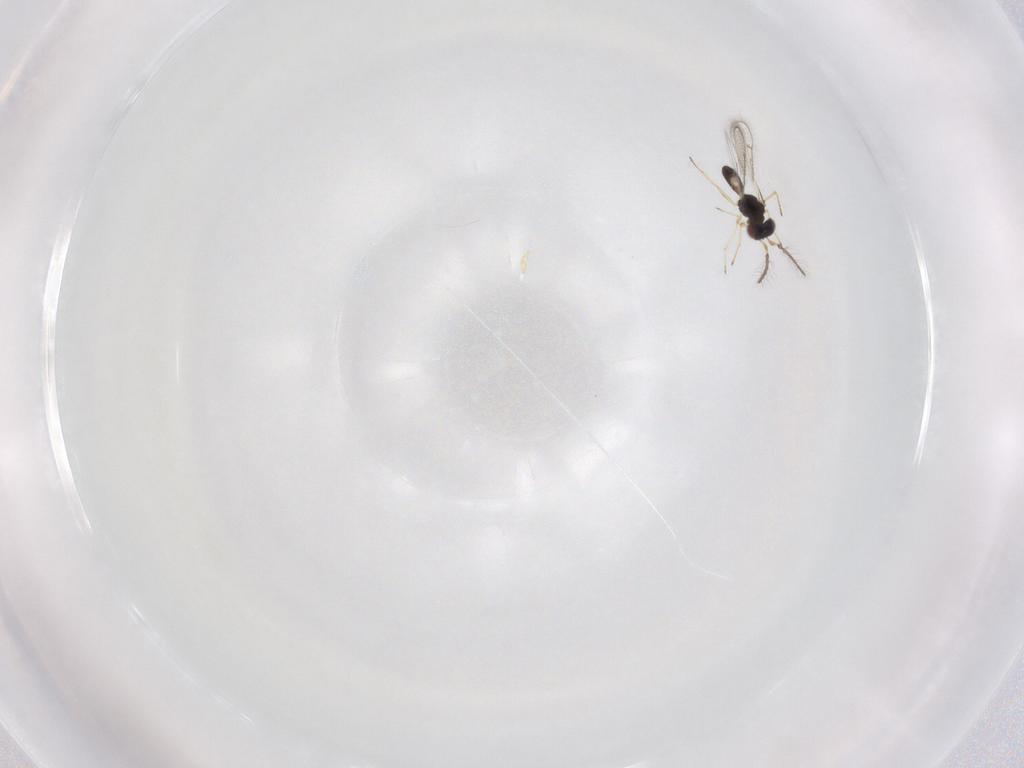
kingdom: Animalia
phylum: Arthropoda
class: Insecta
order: Hymenoptera
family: Eulophidae
